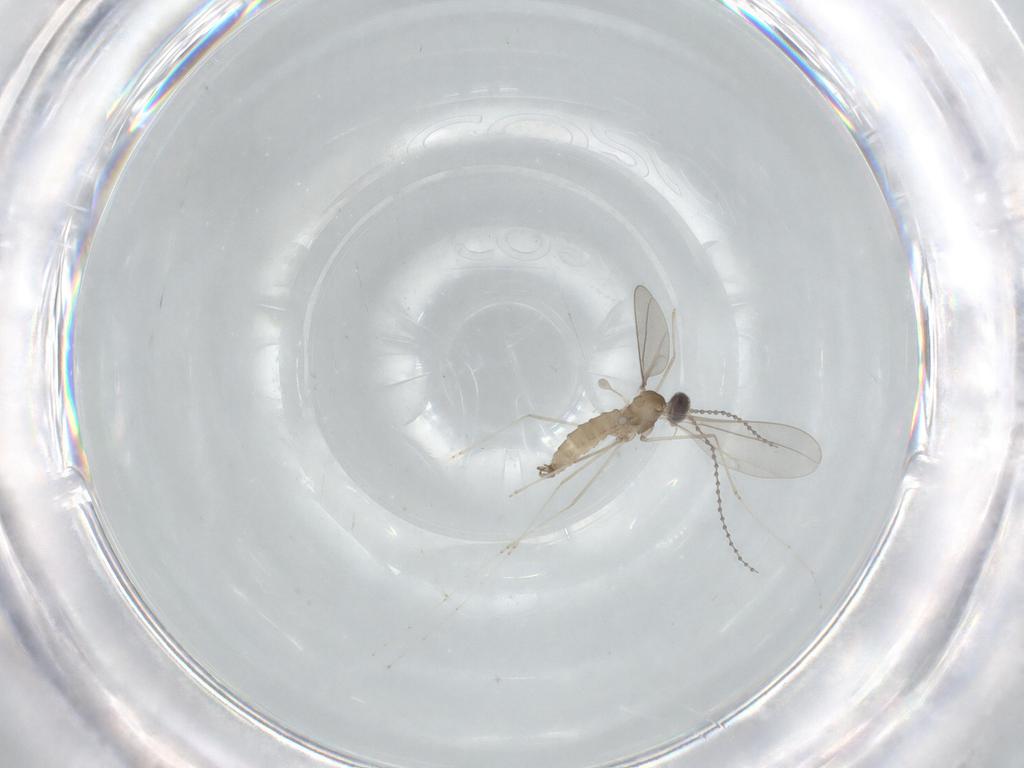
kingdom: Animalia
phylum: Arthropoda
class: Insecta
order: Diptera
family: Cecidomyiidae
